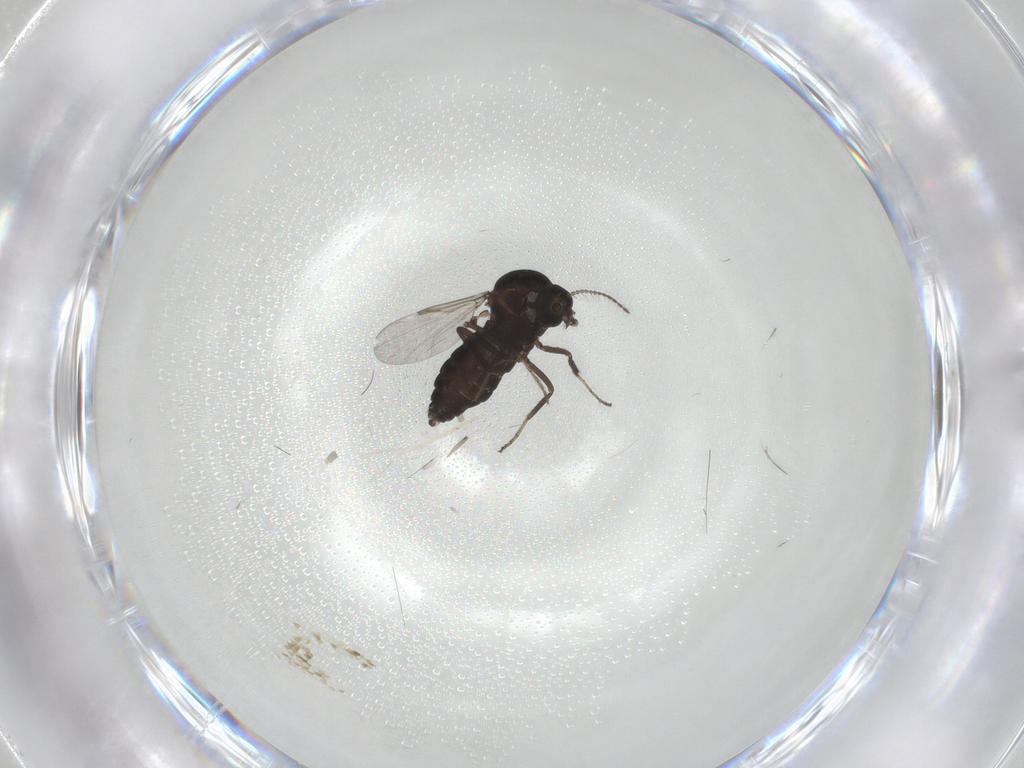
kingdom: Animalia
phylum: Arthropoda
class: Insecta
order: Diptera
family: Ceratopogonidae
